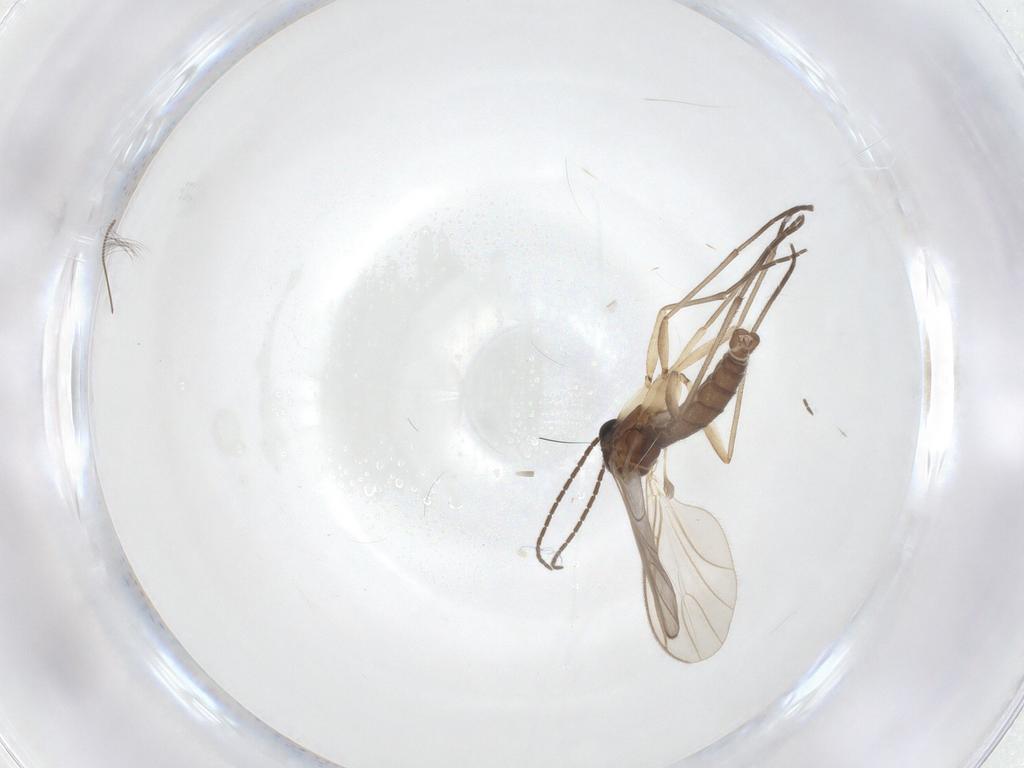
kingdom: Animalia
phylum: Arthropoda
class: Insecta
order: Diptera
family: Sciaridae
